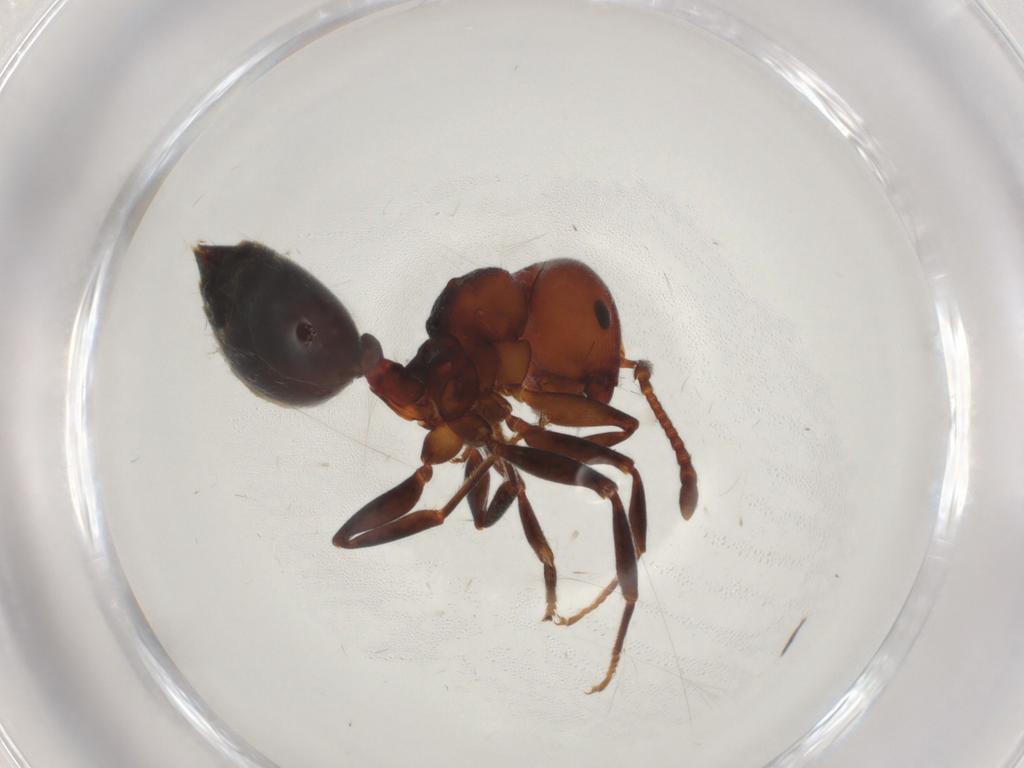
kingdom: Animalia
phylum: Arthropoda
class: Insecta
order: Hymenoptera
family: Formicidae
